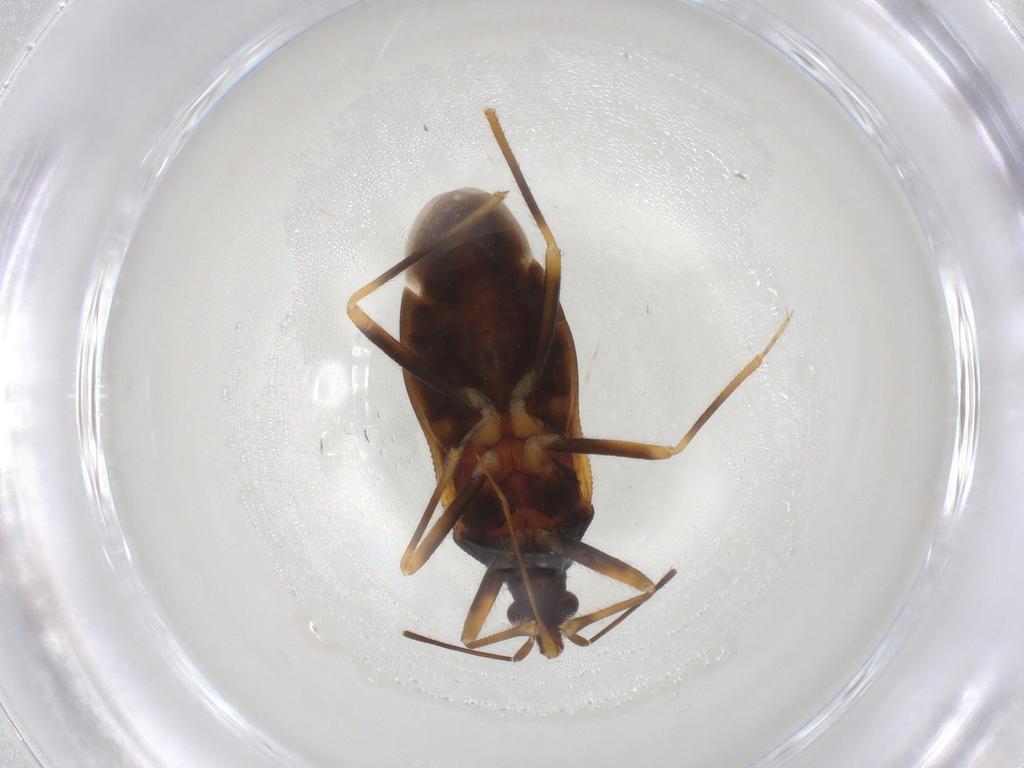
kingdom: Animalia
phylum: Arthropoda
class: Insecta
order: Hemiptera
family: Anthocoridae
